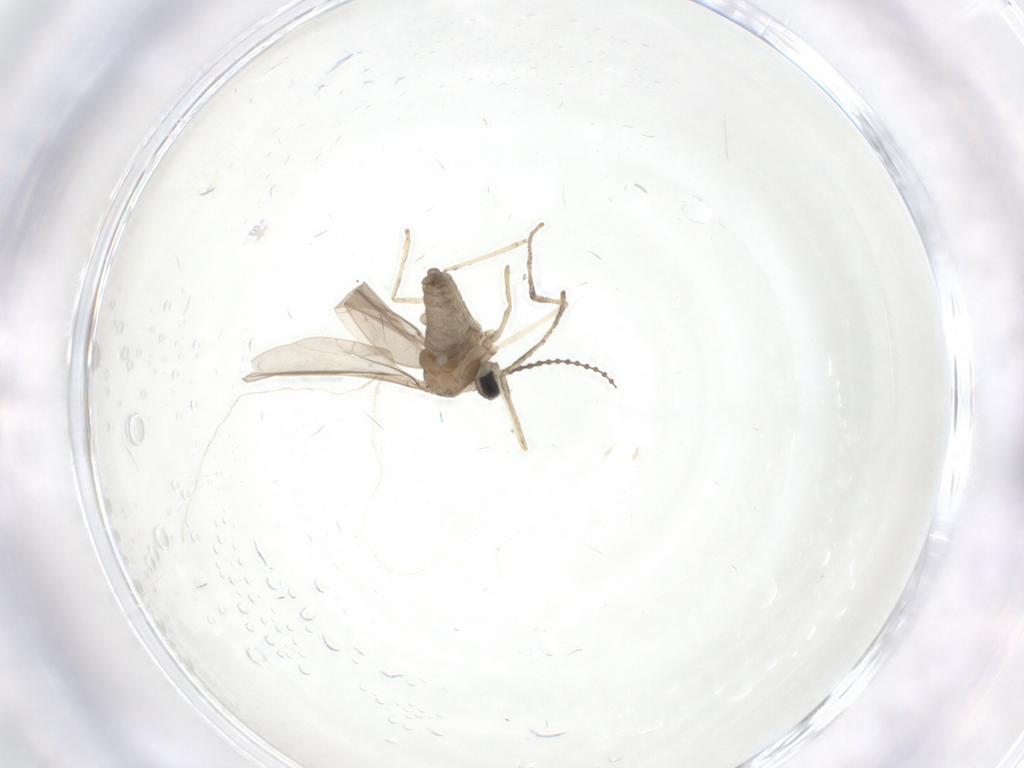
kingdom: Animalia
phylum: Arthropoda
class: Insecta
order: Diptera
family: Cecidomyiidae
